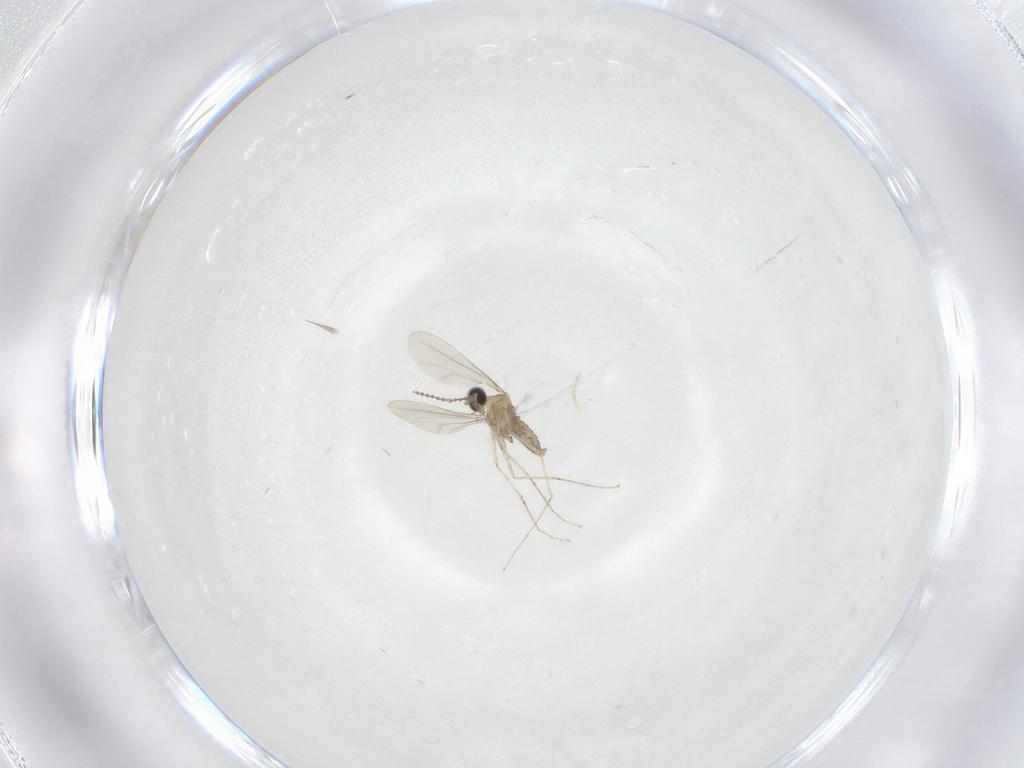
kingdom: Animalia
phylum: Arthropoda
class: Insecta
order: Diptera
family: Cecidomyiidae
